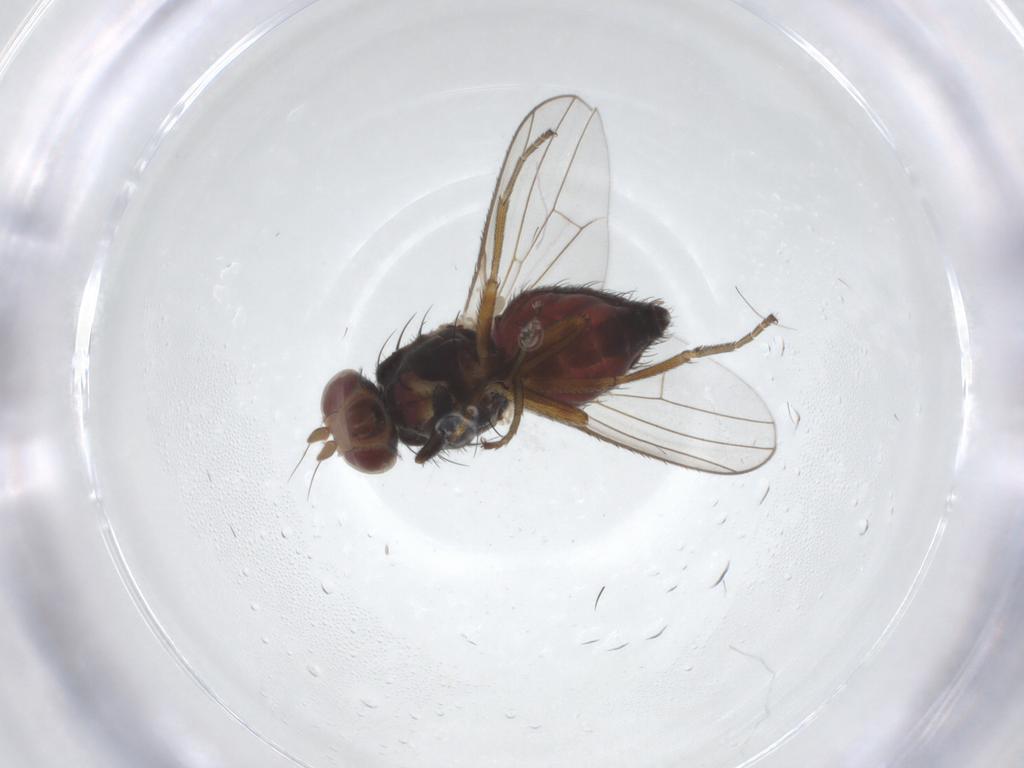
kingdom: Animalia
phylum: Arthropoda
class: Insecta
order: Diptera
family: Heleomyzidae
